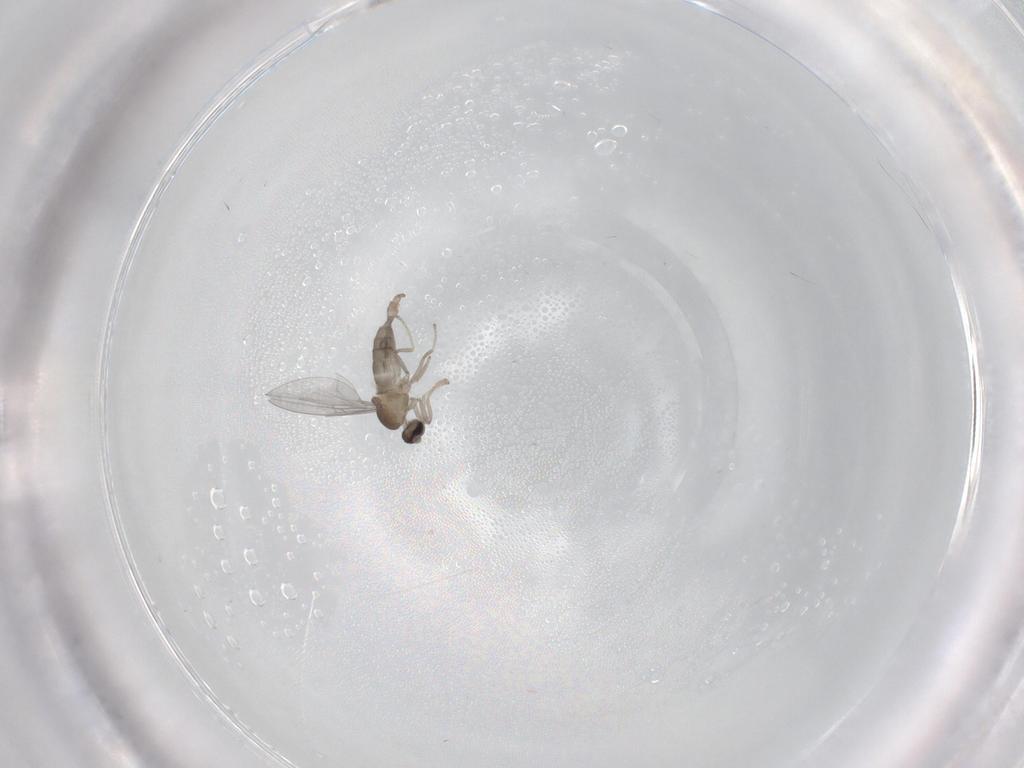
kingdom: Animalia
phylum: Arthropoda
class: Insecta
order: Diptera
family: Cecidomyiidae
